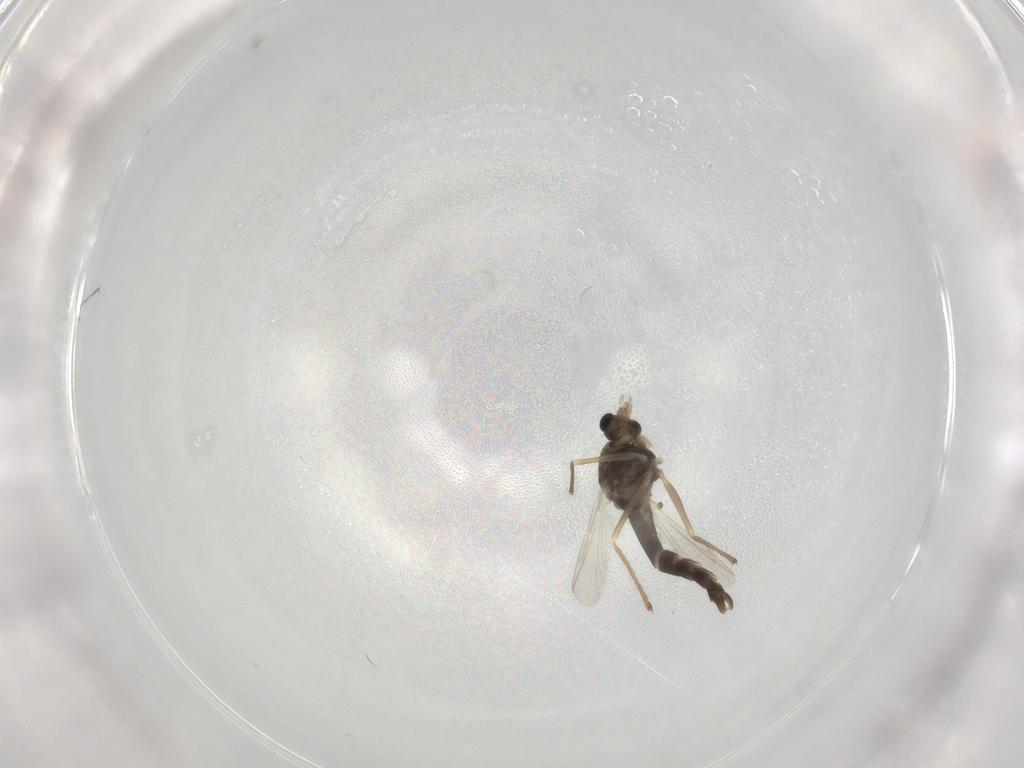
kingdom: Animalia
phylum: Arthropoda
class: Insecta
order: Diptera
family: Chironomidae
